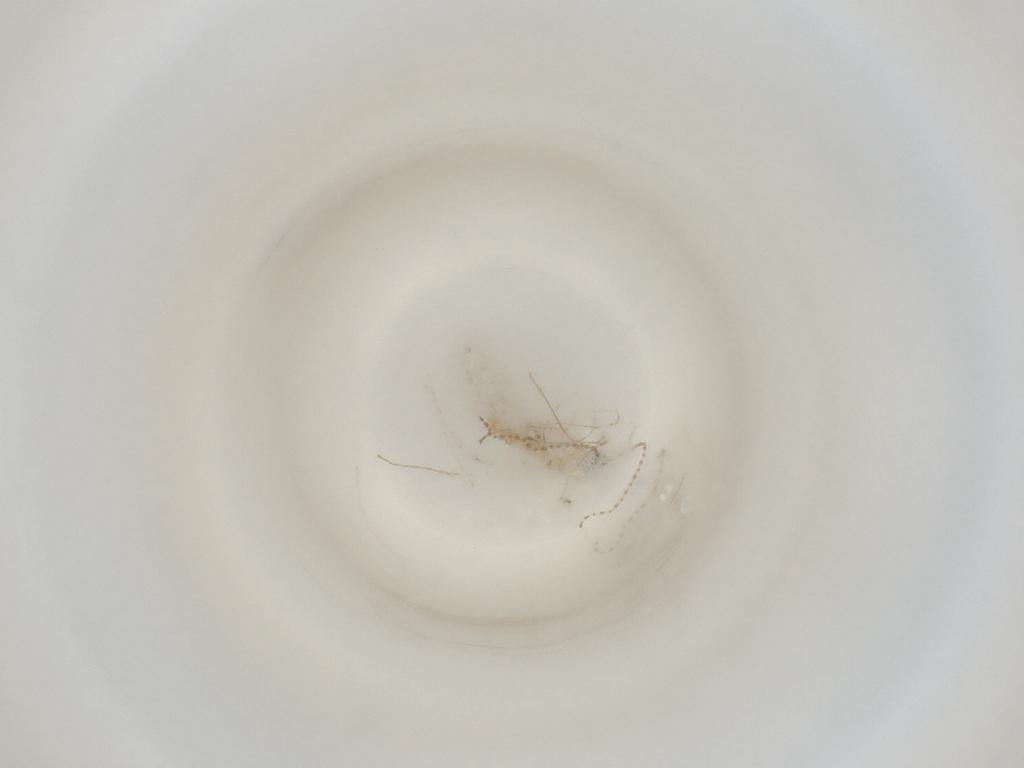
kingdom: Animalia
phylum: Arthropoda
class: Insecta
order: Diptera
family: Cecidomyiidae
